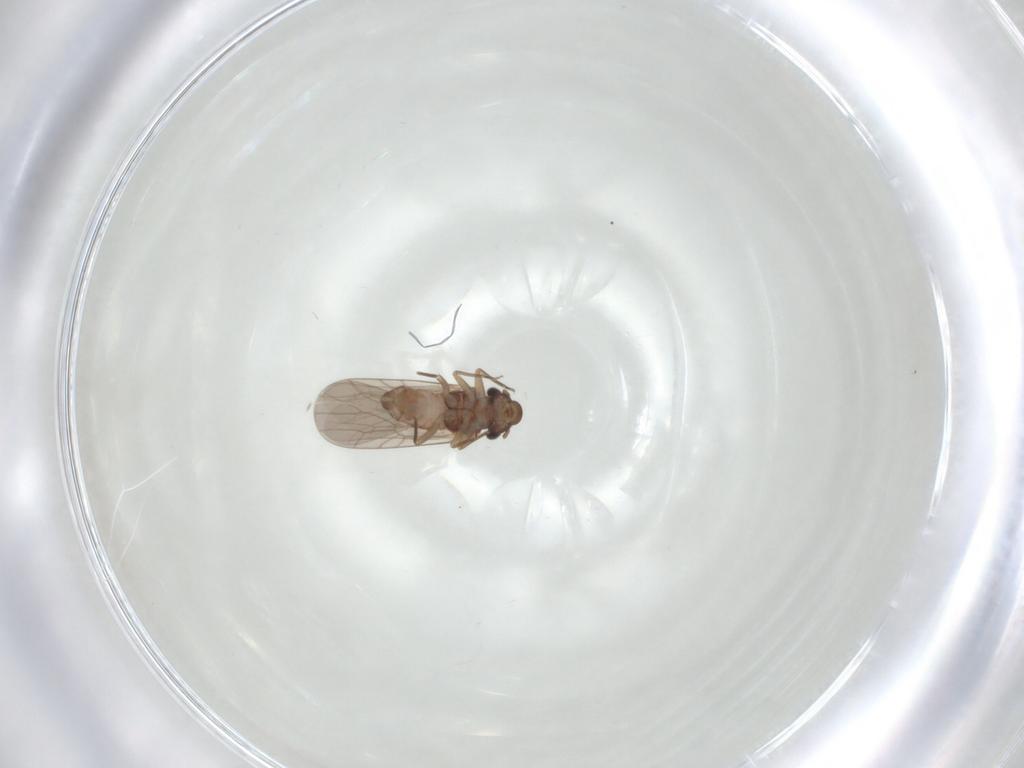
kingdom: Animalia
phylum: Arthropoda
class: Insecta
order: Psocodea
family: Lepidopsocidae
